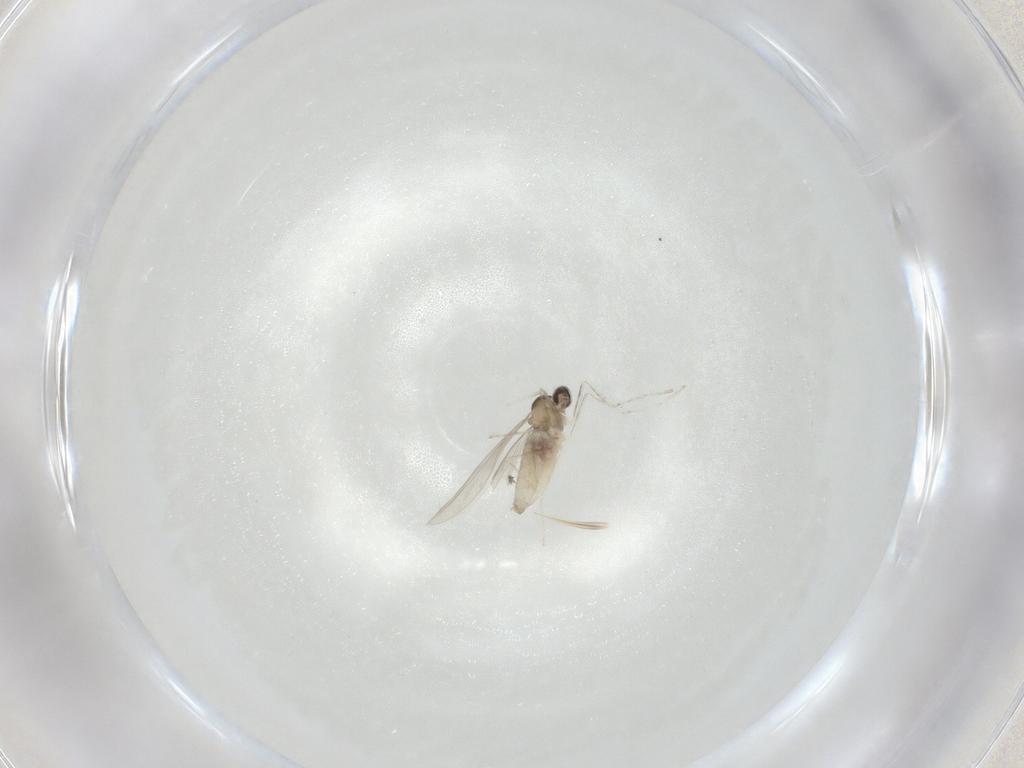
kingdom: Animalia
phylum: Arthropoda
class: Insecta
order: Diptera
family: Cecidomyiidae
